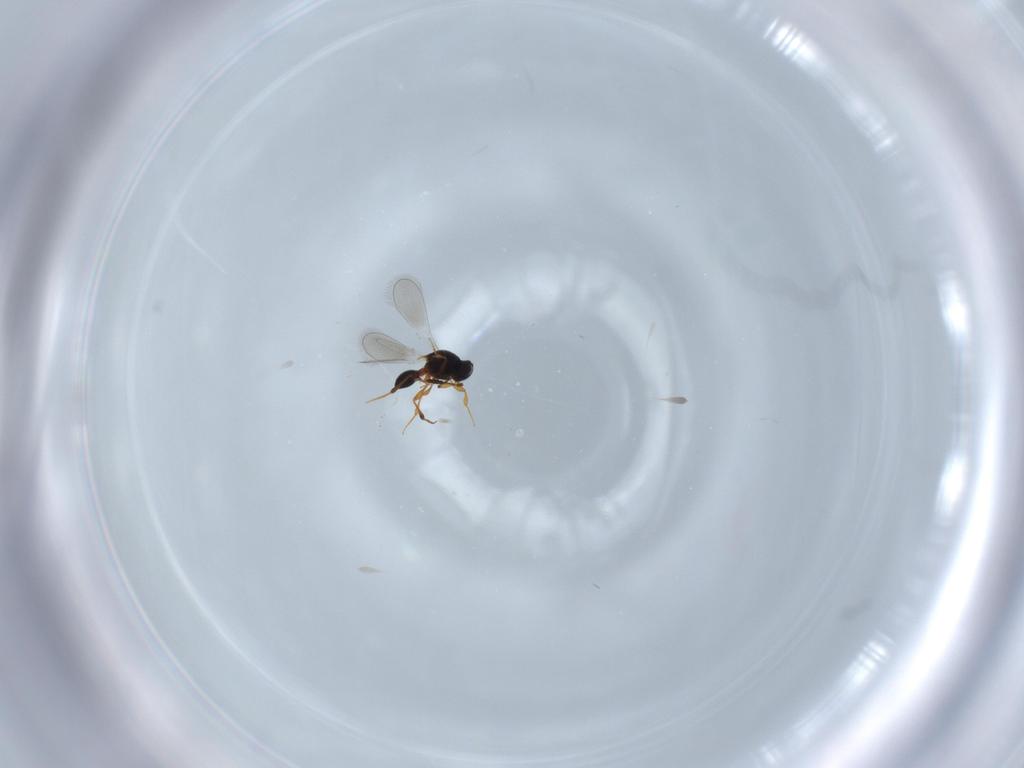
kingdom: Animalia
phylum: Arthropoda
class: Insecta
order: Hymenoptera
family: Platygastridae
